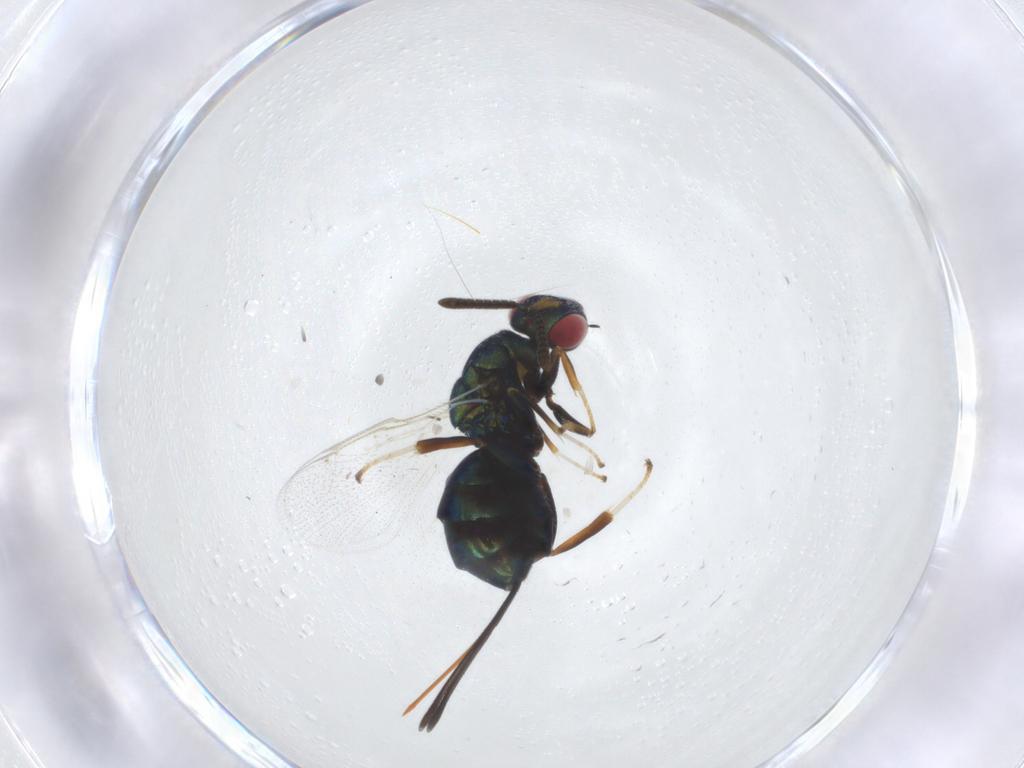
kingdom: Animalia
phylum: Arthropoda
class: Insecta
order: Hymenoptera
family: Torymidae
